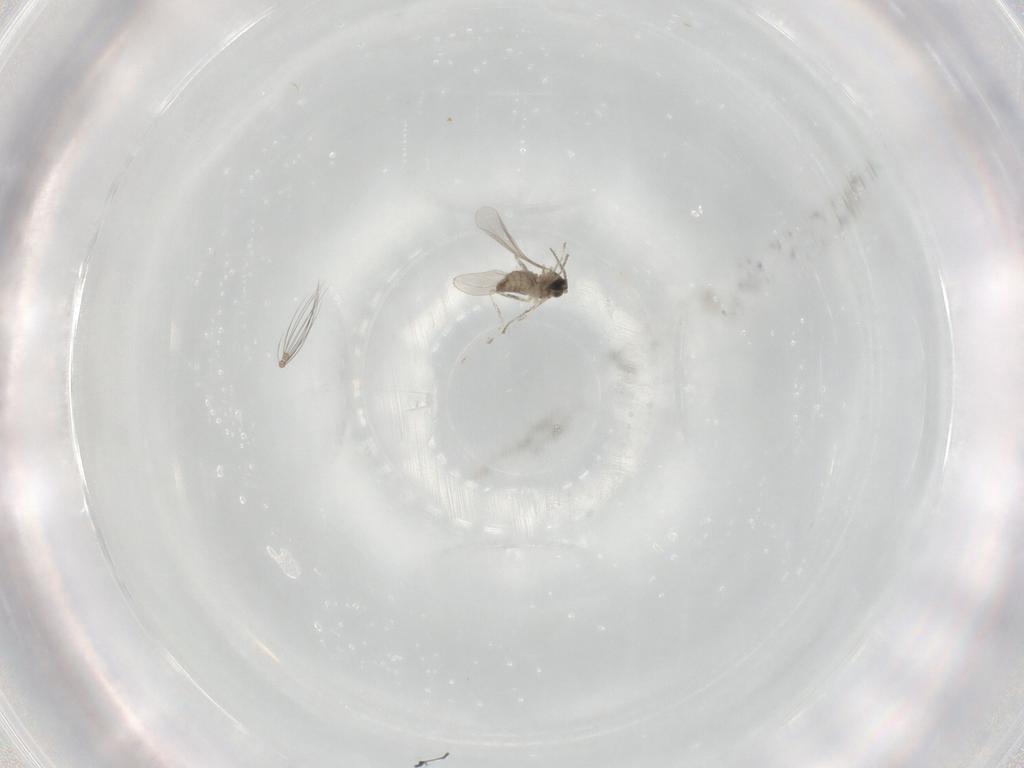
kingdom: Animalia
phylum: Arthropoda
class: Insecta
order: Diptera
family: Ceratopogonidae
